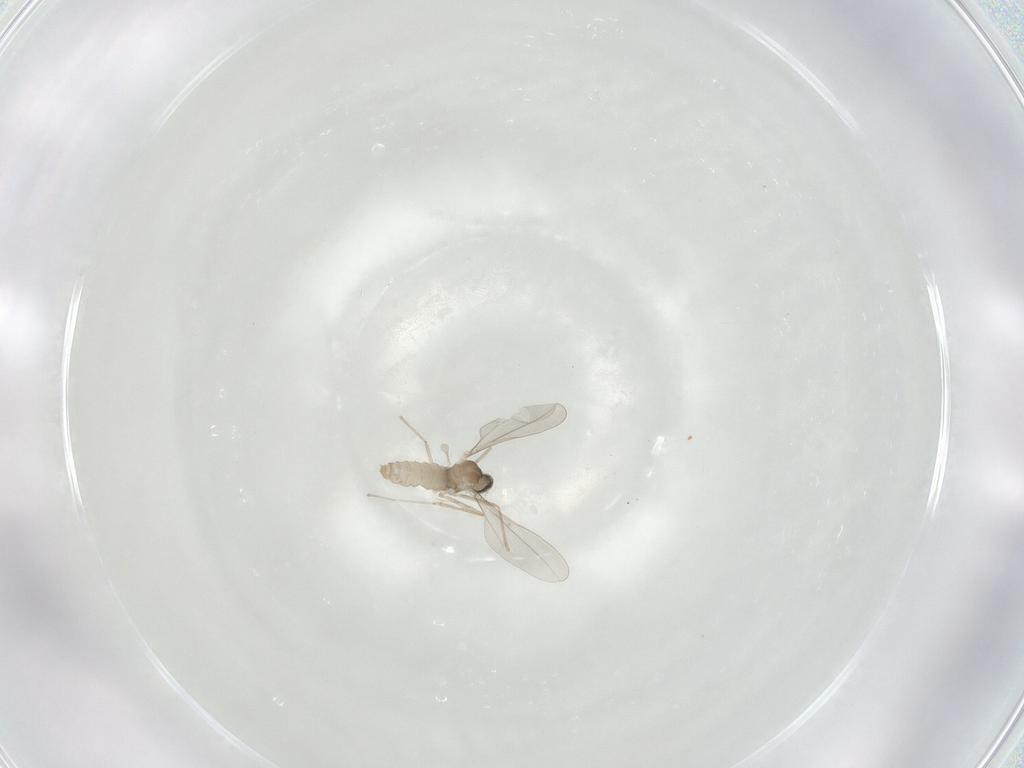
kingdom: Animalia
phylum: Arthropoda
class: Insecta
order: Diptera
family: Cecidomyiidae
